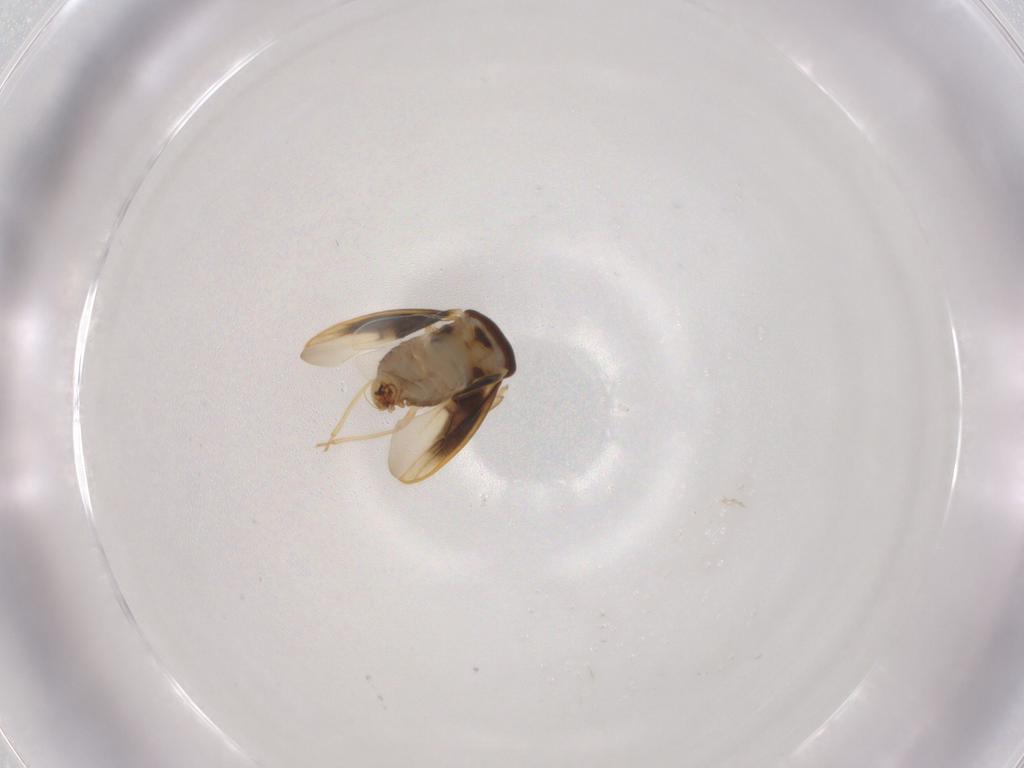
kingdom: Animalia
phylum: Arthropoda
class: Insecta
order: Hemiptera
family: Schizopteridae
